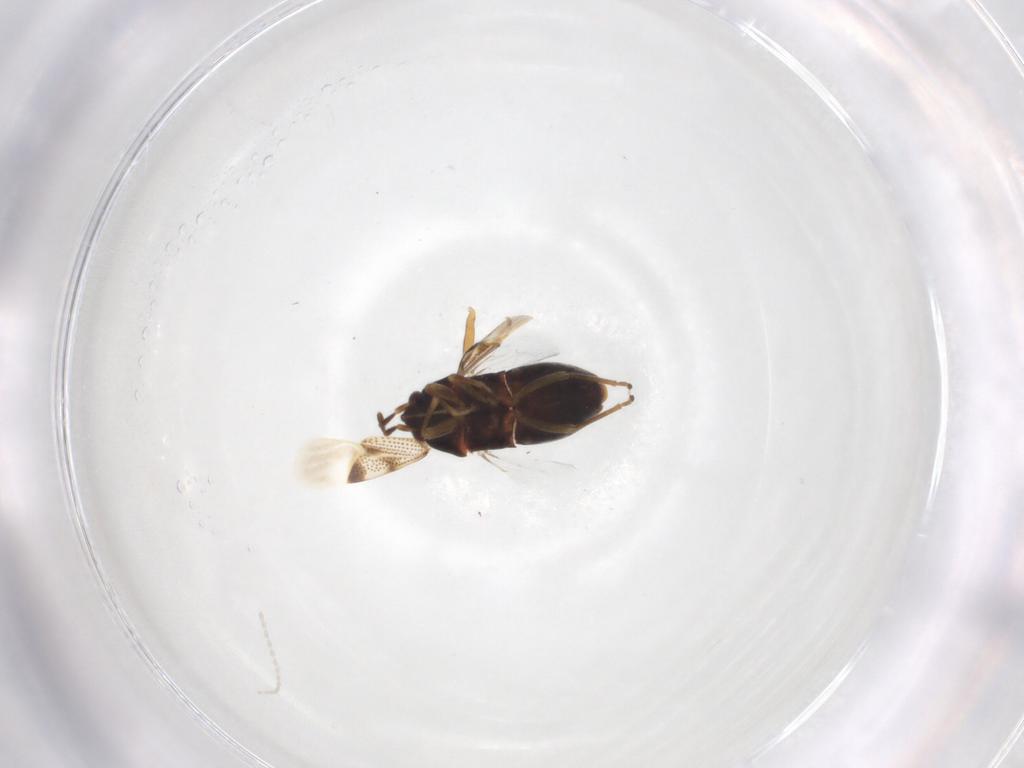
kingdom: Animalia
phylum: Arthropoda
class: Insecta
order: Hemiptera
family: Rhyparochromidae
